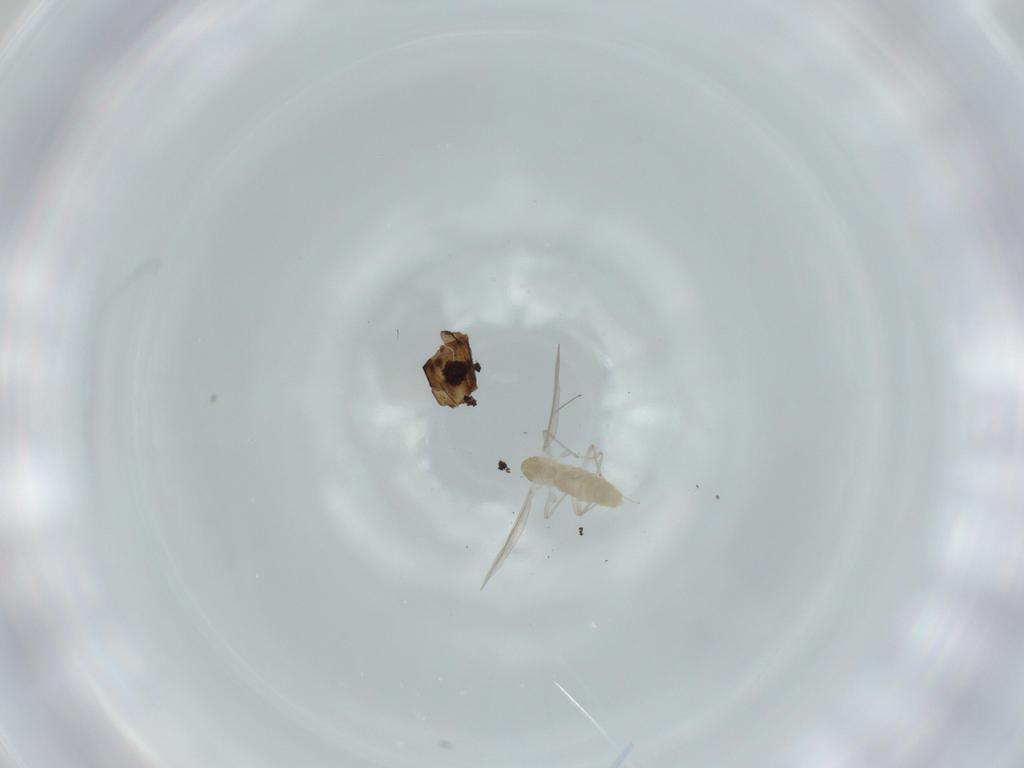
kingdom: Animalia
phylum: Arthropoda
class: Insecta
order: Diptera
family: Chironomidae
